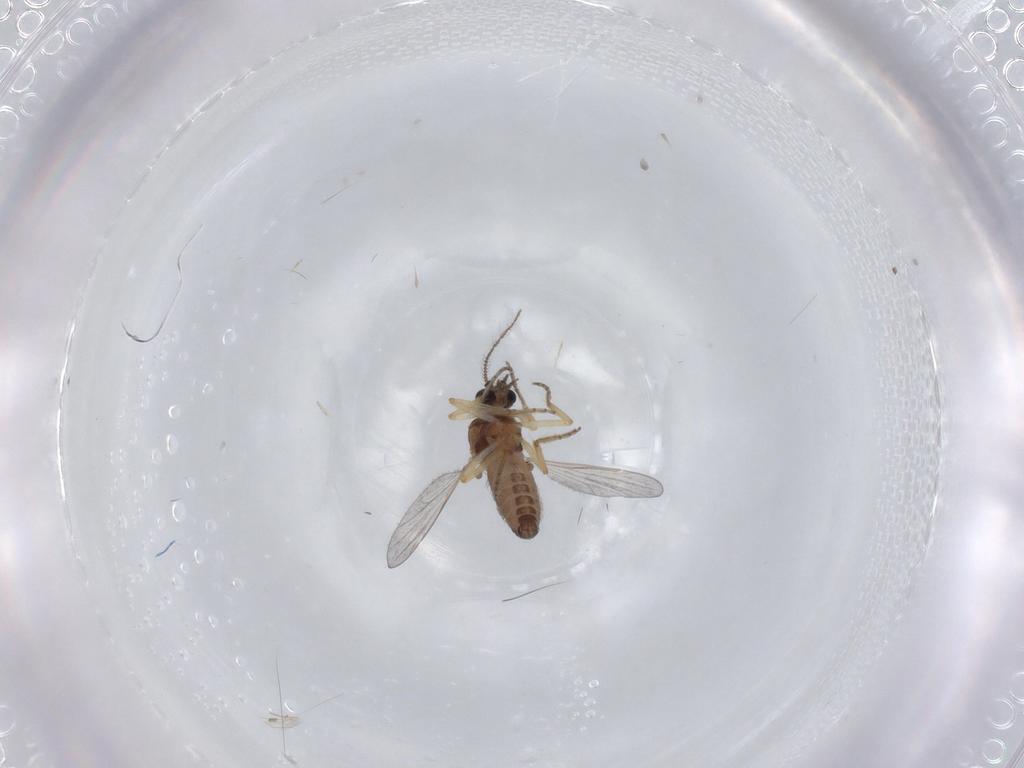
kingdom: Animalia
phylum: Arthropoda
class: Insecta
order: Diptera
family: Ceratopogonidae
